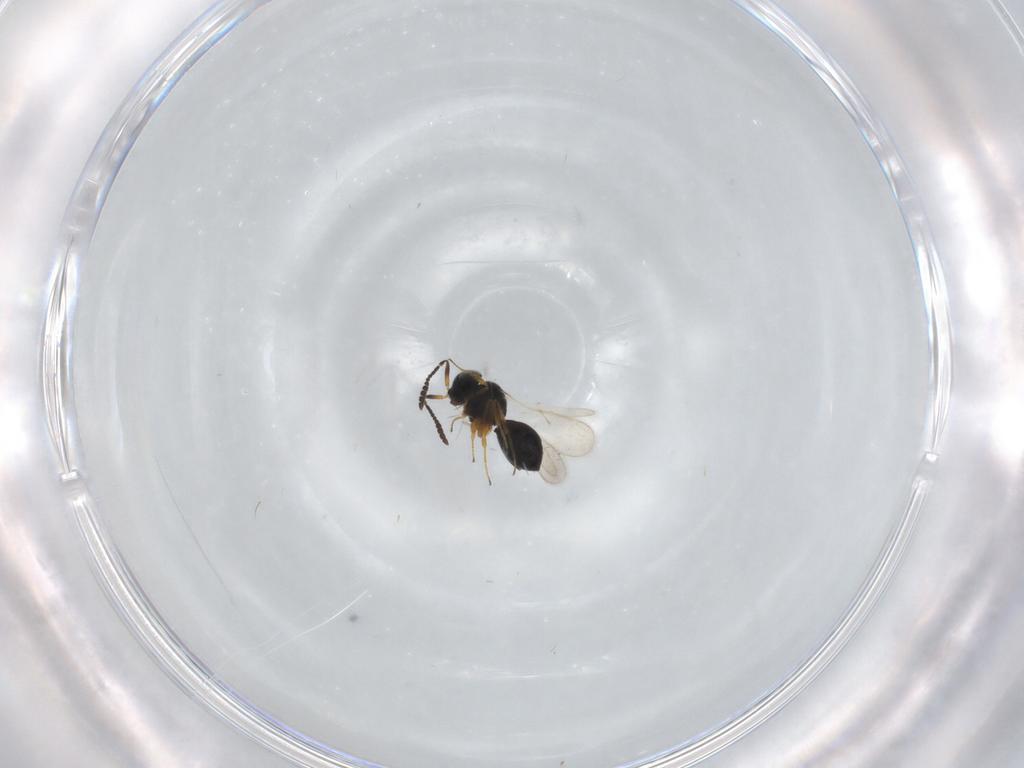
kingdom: Animalia
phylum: Arthropoda
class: Insecta
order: Hymenoptera
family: Scelionidae
